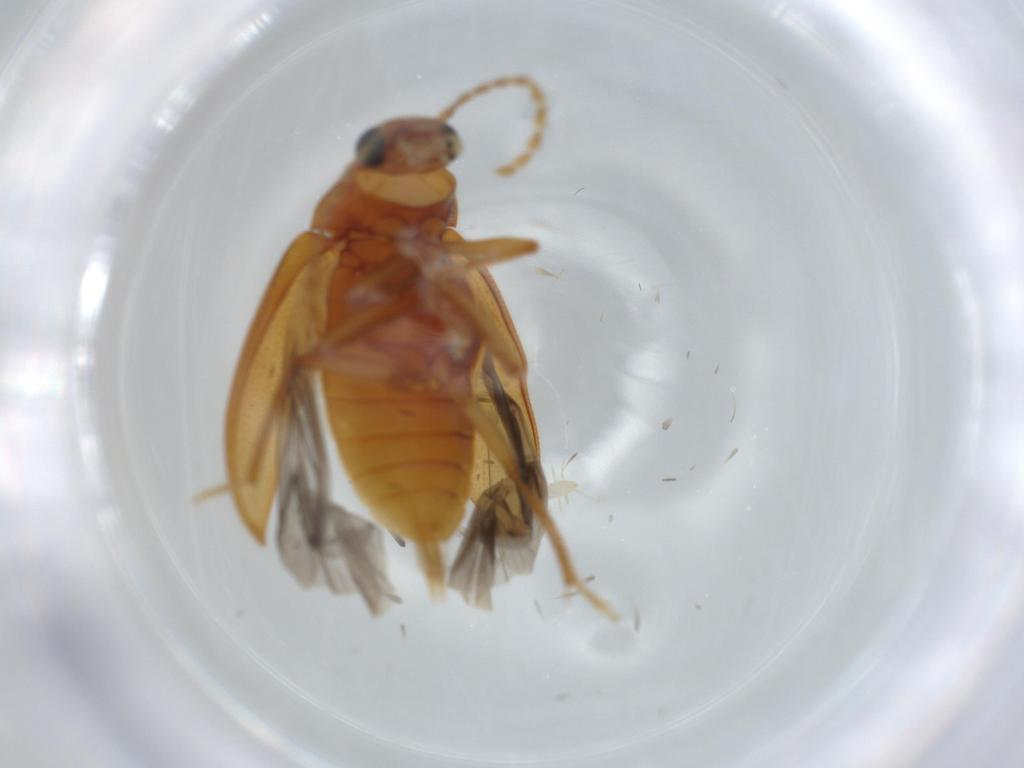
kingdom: Animalia
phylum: Arthropoda
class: Insecta
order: Coleoptera
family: Ptilodactylidae
